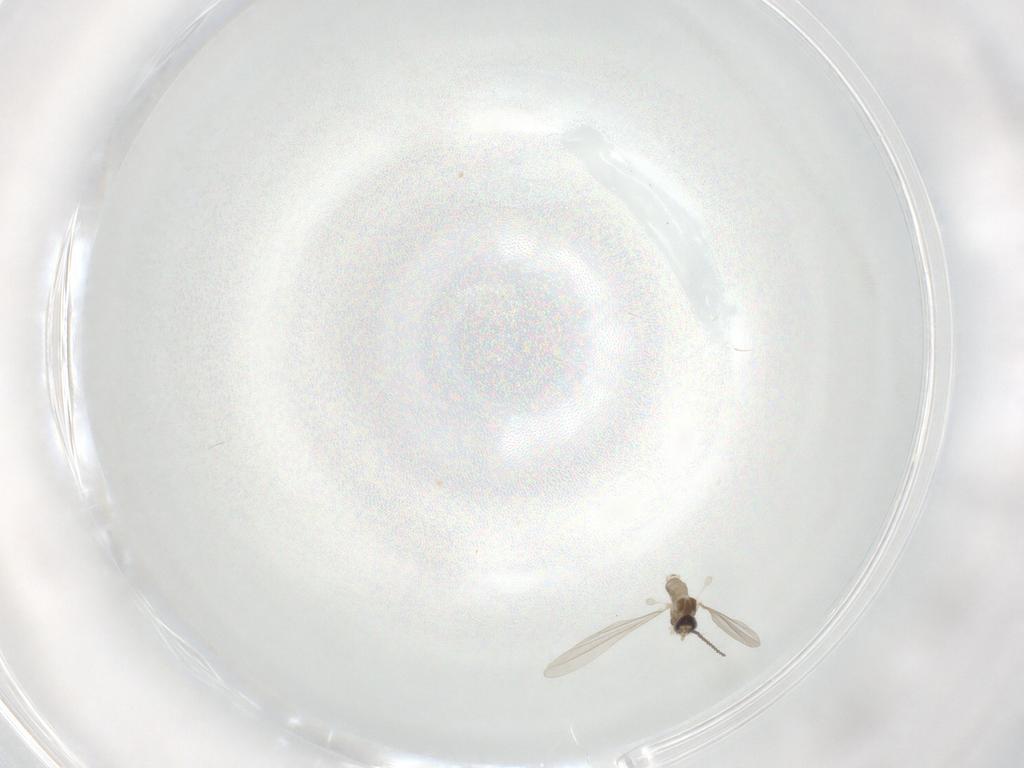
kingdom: Animalia
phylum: Arthropoda
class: Insecta
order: Diptera
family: Cecidomyiidae
